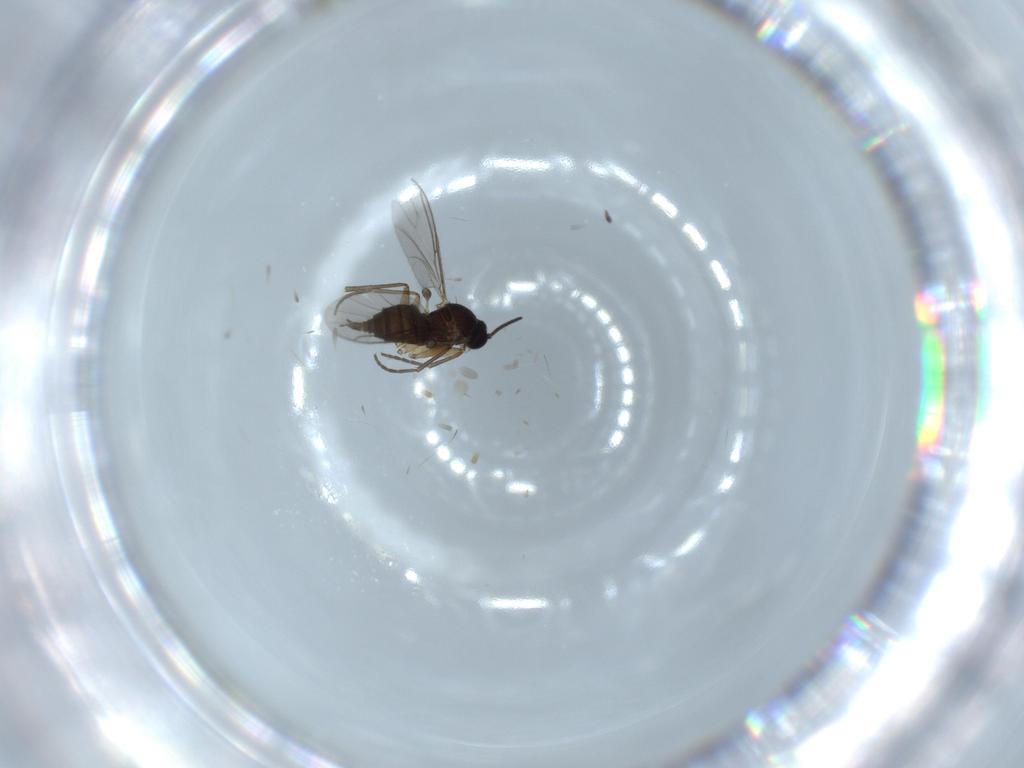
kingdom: Animalia
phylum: Arthropoda
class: Insecta
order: Diptera
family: Sciaridae
